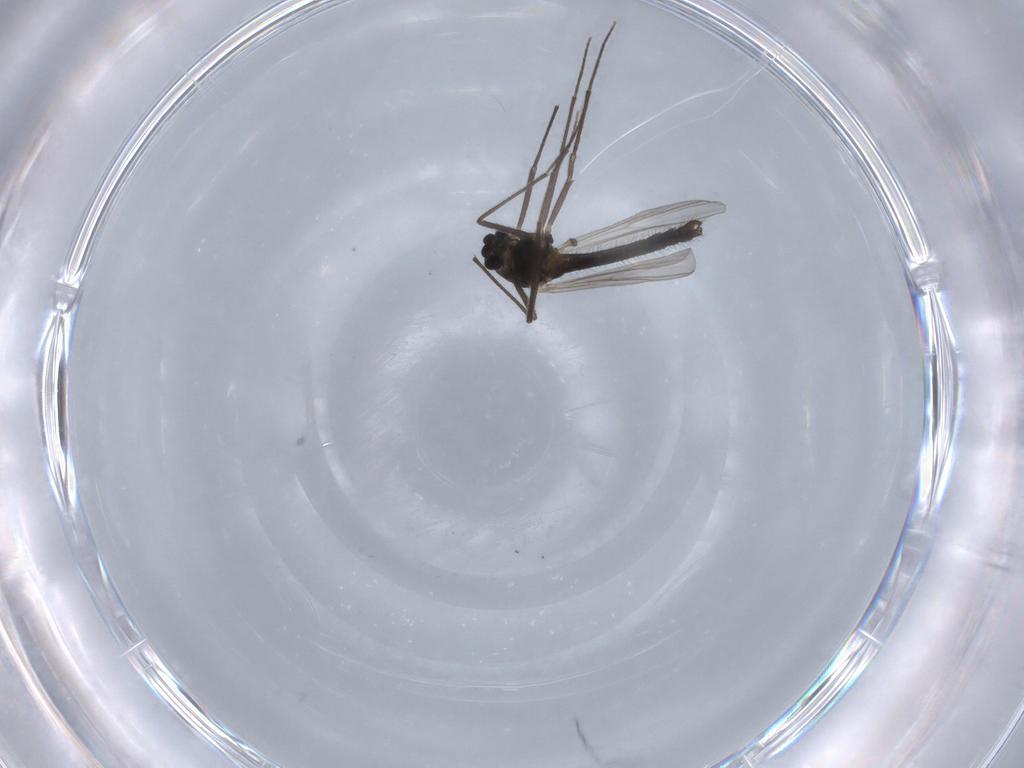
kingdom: Animalia
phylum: Arthropoda
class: Insecta
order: Diptera
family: Chironomidae
